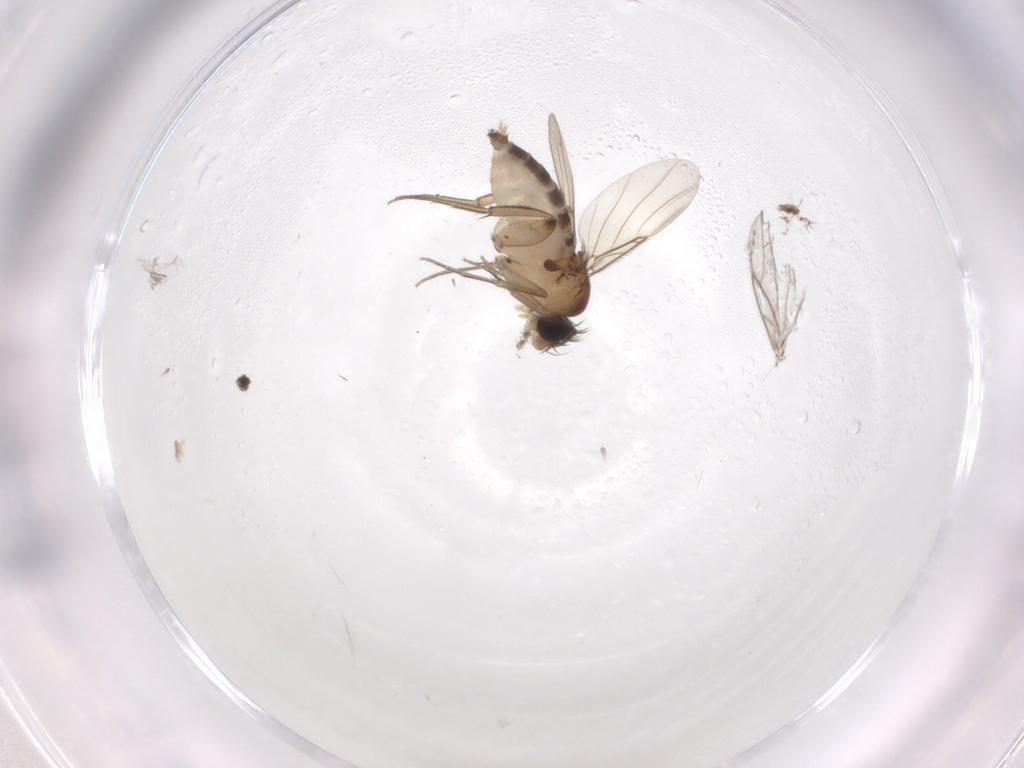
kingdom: Animalia
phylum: Arthropoda
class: Insecta
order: Diptera
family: Phoridae
